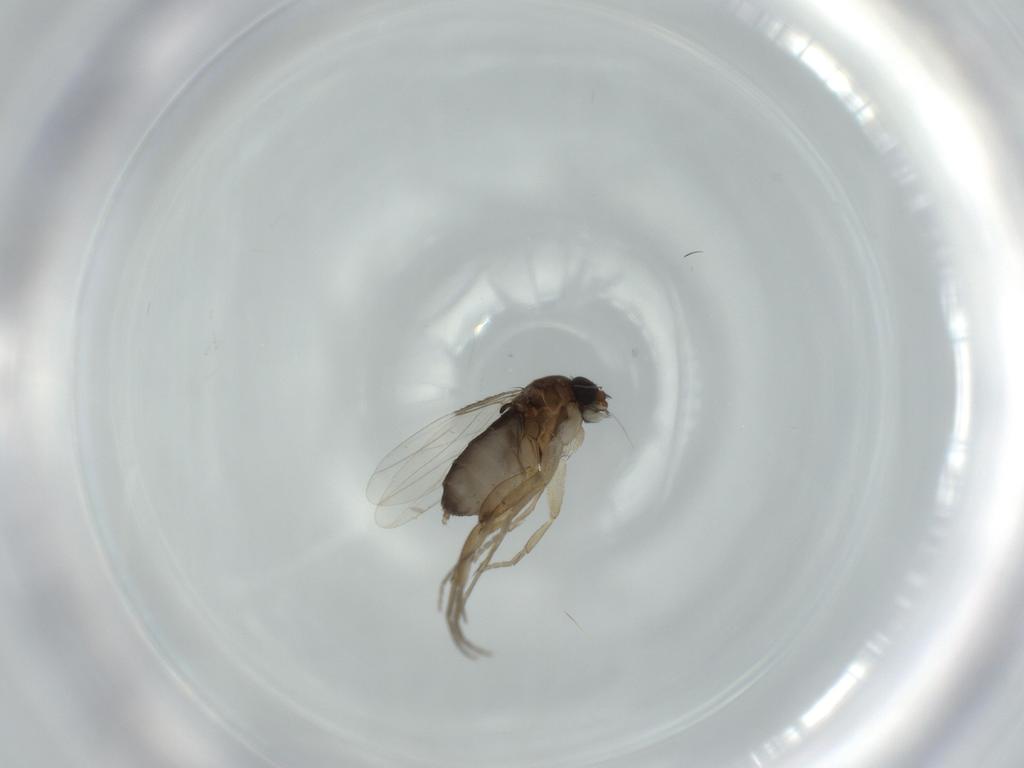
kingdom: Animalia
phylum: Arthropoda
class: Insecta
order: Diptera
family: Phoridae
